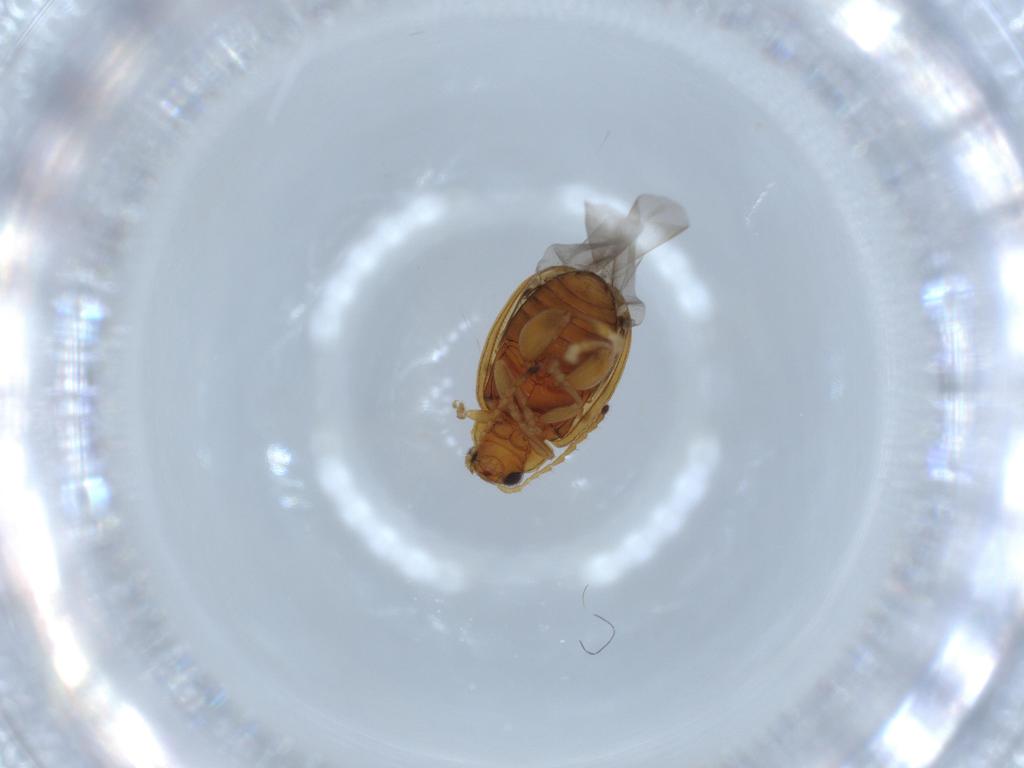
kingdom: Animalia
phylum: Arthropoda
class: Insecta
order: Coleoptera
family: Chrysomelidae
